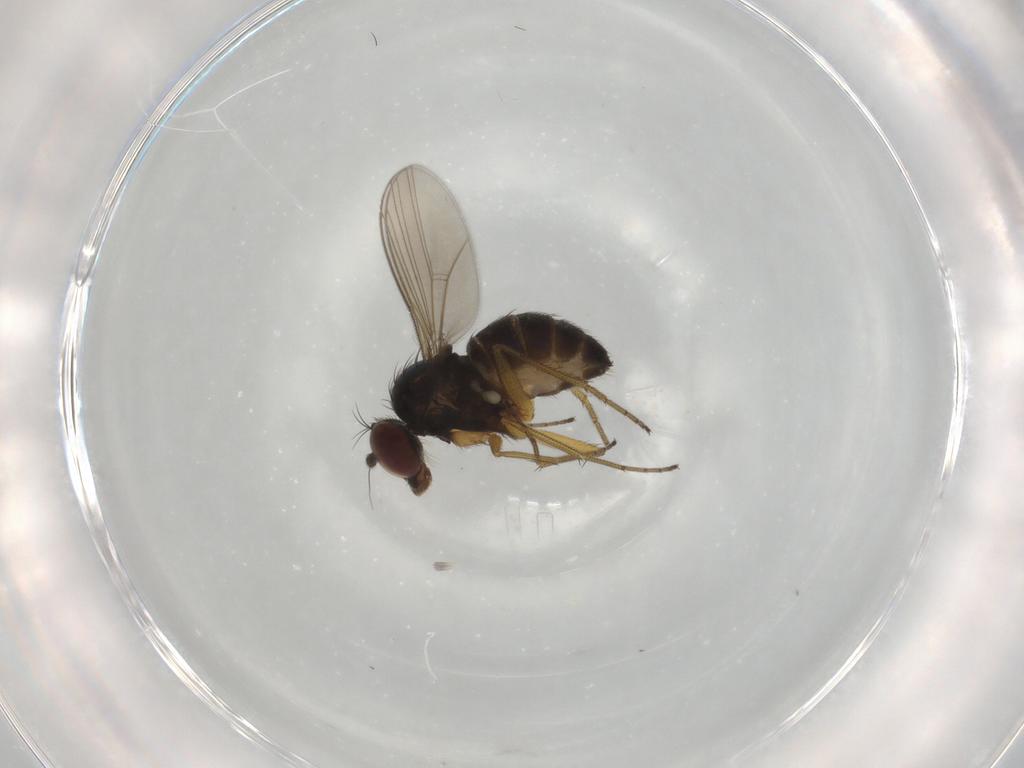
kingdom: Animalia
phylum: Arthropoda
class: Insecta
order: Diptera
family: Dolichopodidae
